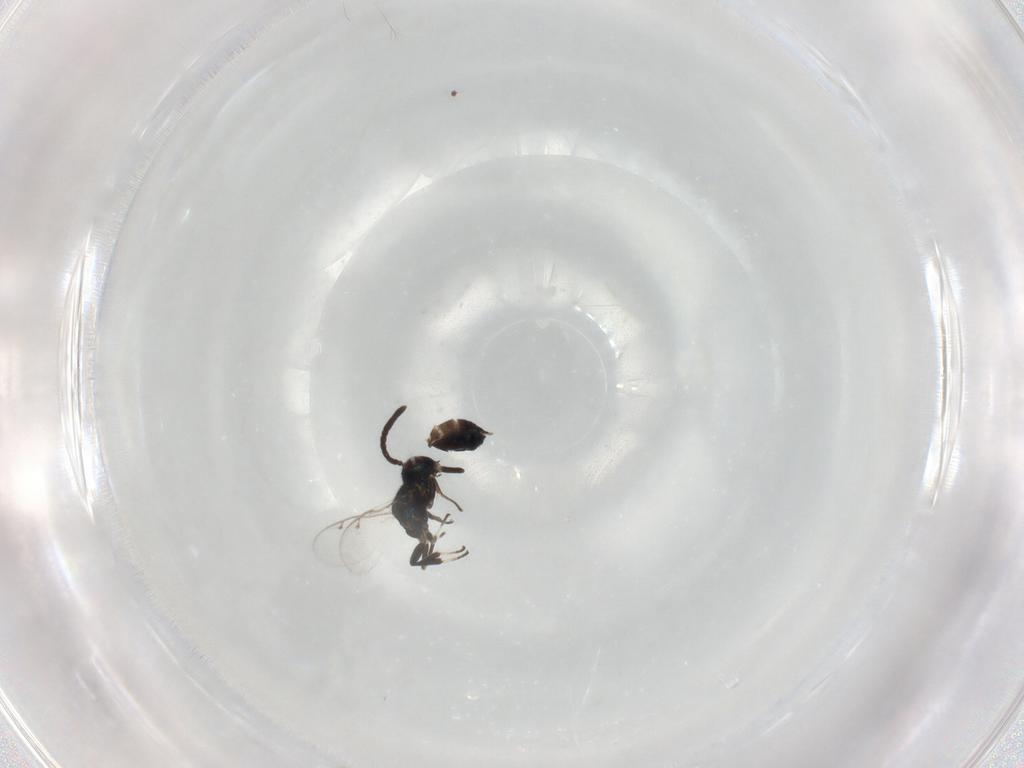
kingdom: Animalia
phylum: Arthropoda
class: Insecta
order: Hymenoptera
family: Eupelmidae
